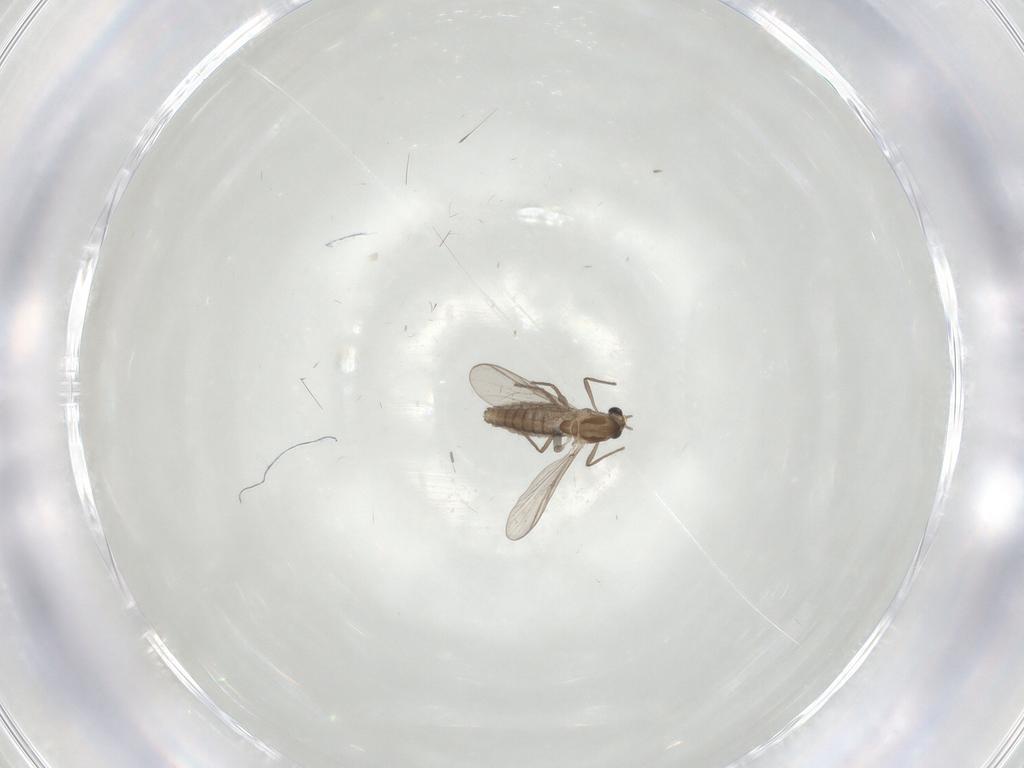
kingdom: Animalia
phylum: Arthropoda
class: Insecta
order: Diptera
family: Chironomidae
